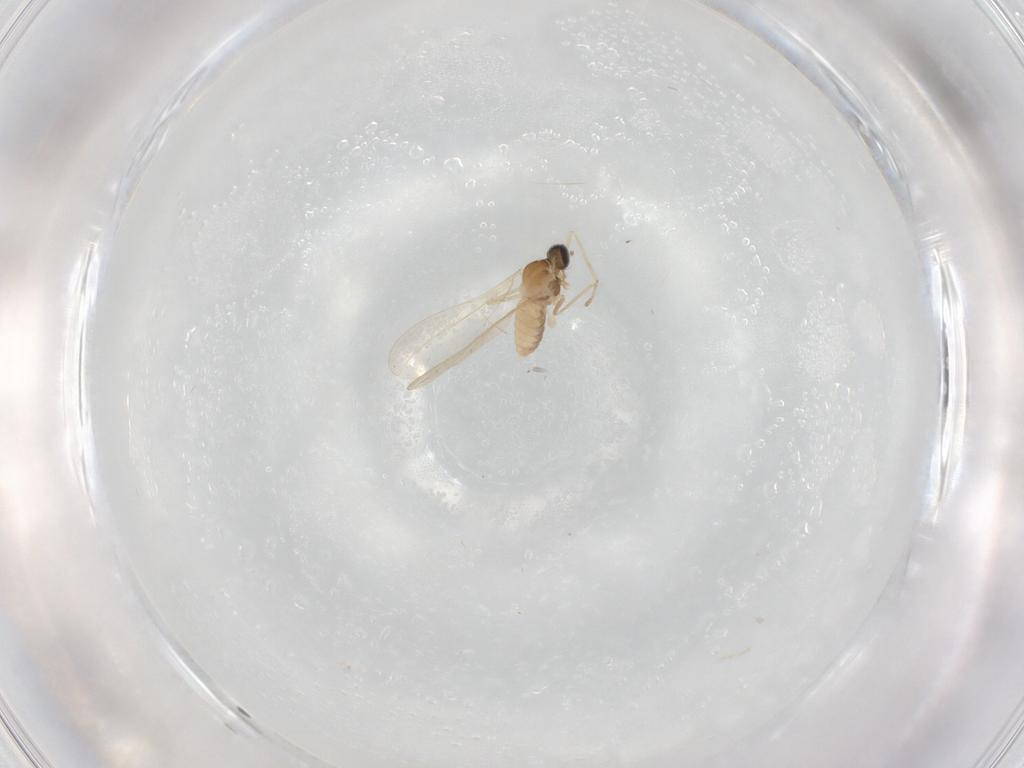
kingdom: Animalia
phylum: Arthropoda
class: Insecta
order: Diptera
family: Cecidomyiidae
